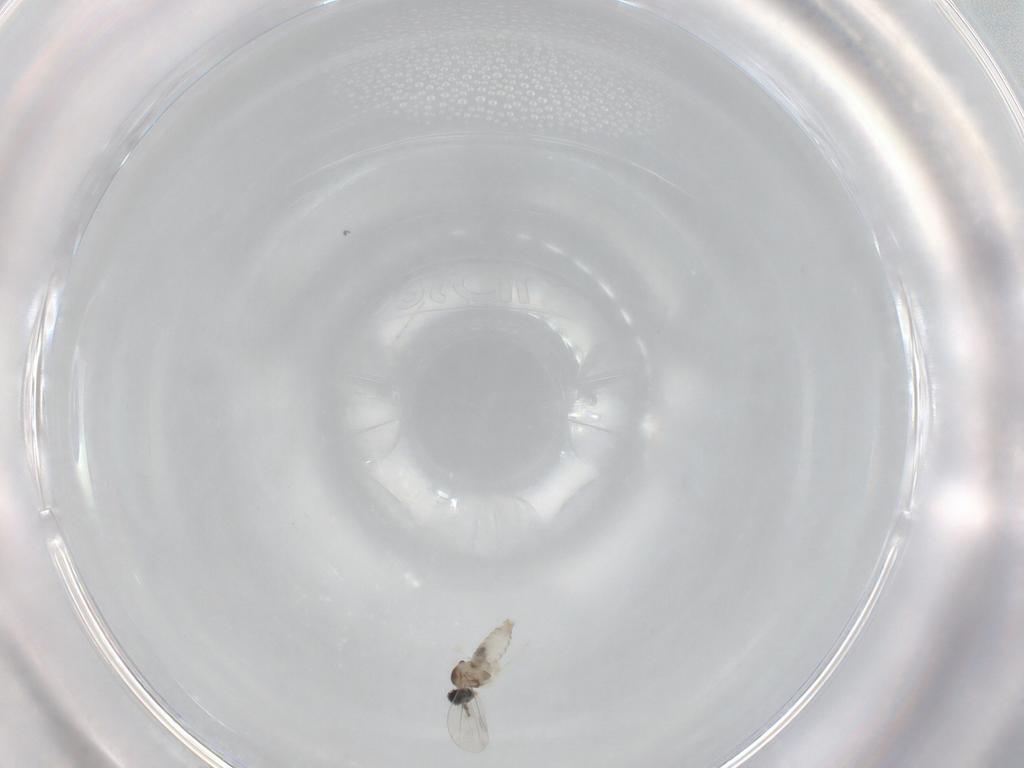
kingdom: Animalia
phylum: Arthropoda
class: Insecta
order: Diptera
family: Cecidomyiidae
